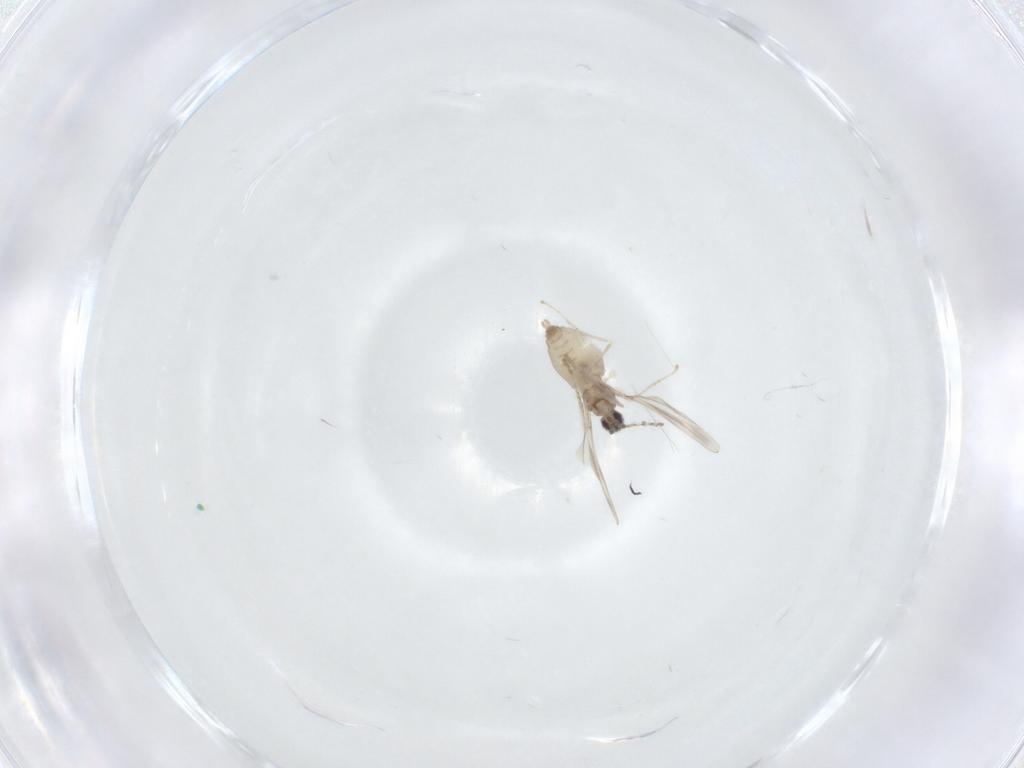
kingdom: Animalia
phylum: Arthropoda
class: Insecta
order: Diptera
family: Cecidomyiidae
